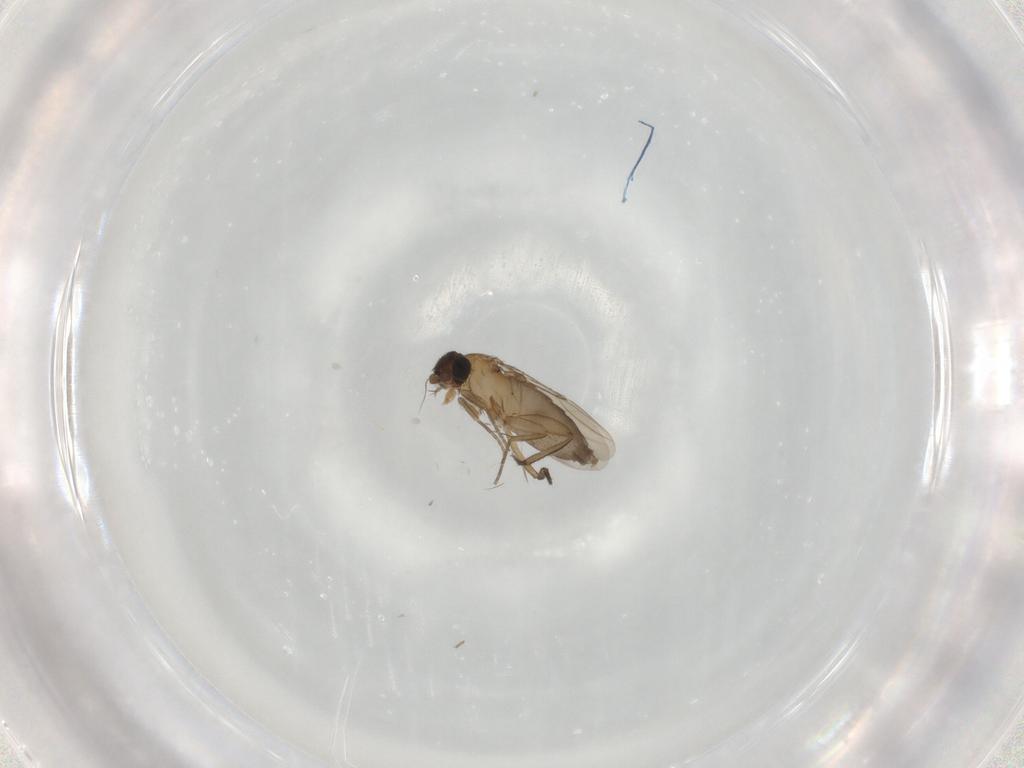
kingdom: Animalia
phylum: Arthropoda
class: Insecta
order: Diptera
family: Phoridae
